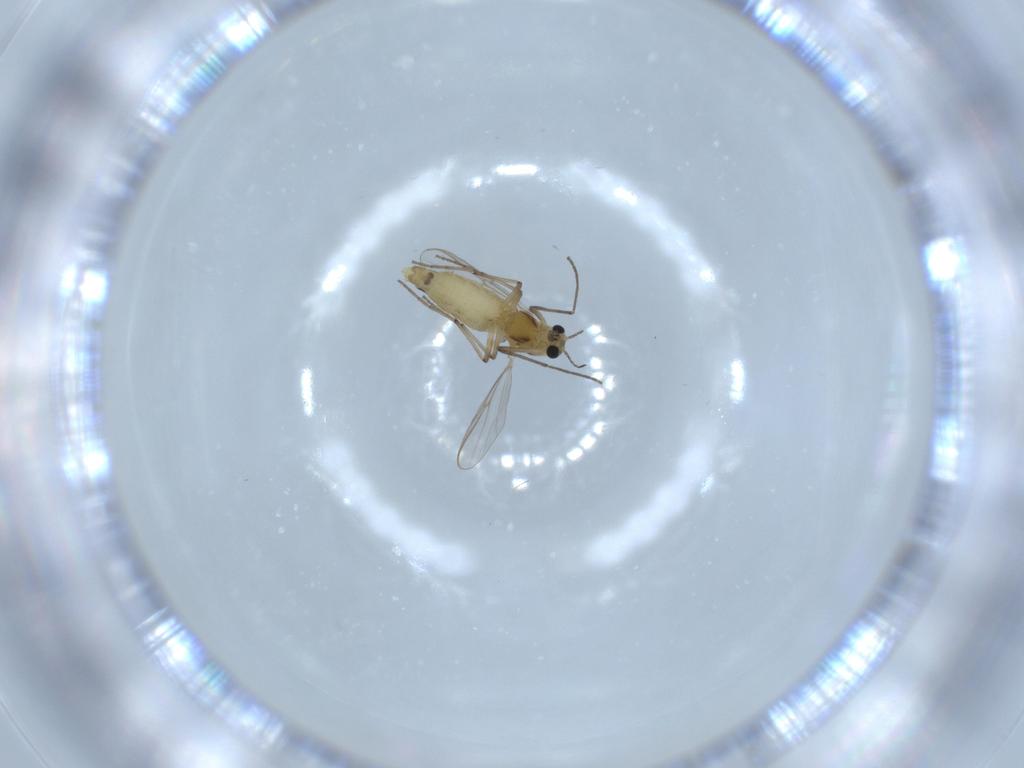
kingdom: Animalia
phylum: Arthropoda
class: Insecta
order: Diptera
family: Chironomidae
